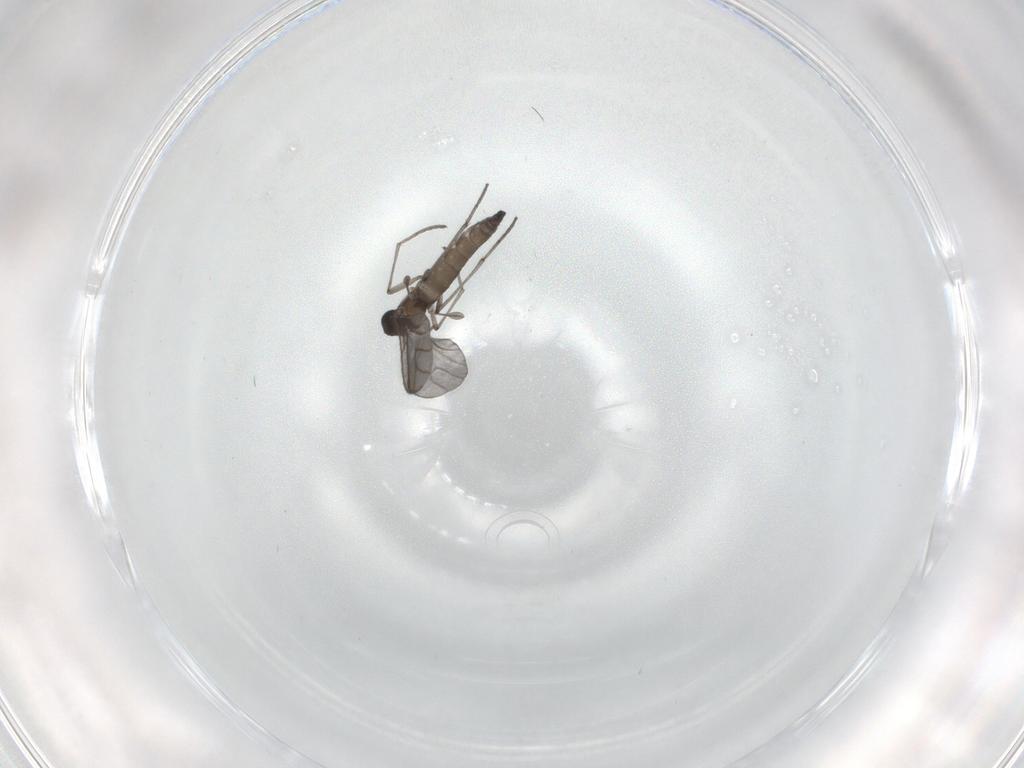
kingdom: Animalia
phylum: Arthropoda
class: Insecta
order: Diptera
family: Sciaridae
